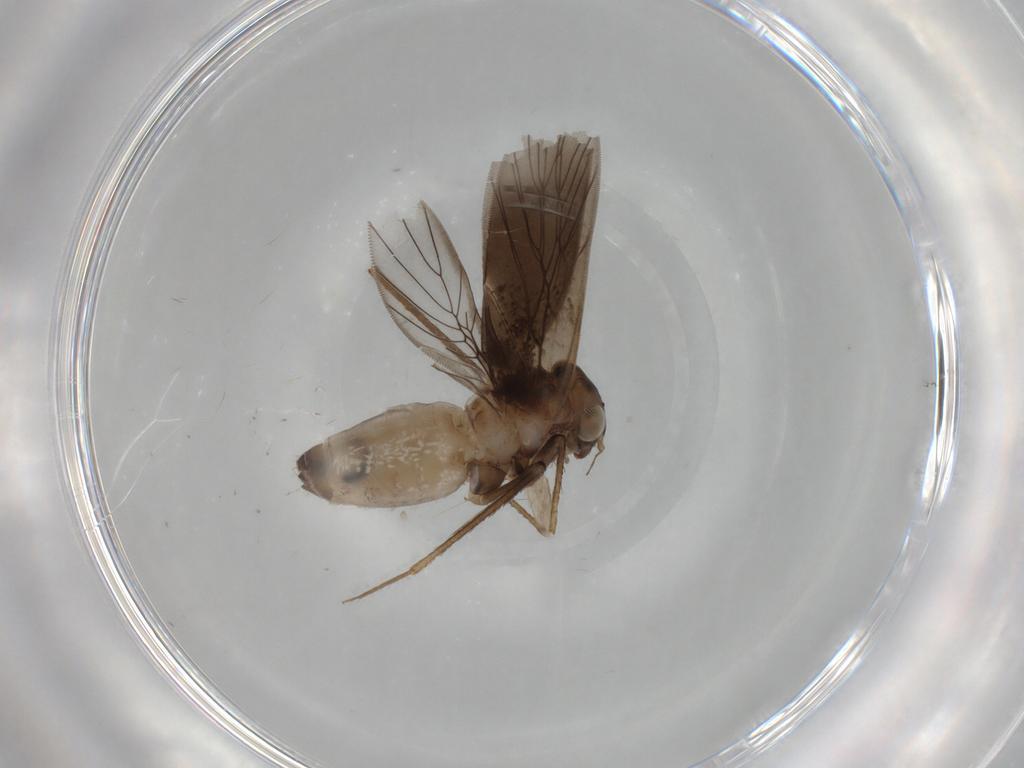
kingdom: Animalia
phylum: Arthropoda
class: Insecta
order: Psocodea
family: Lepidopsocidae
